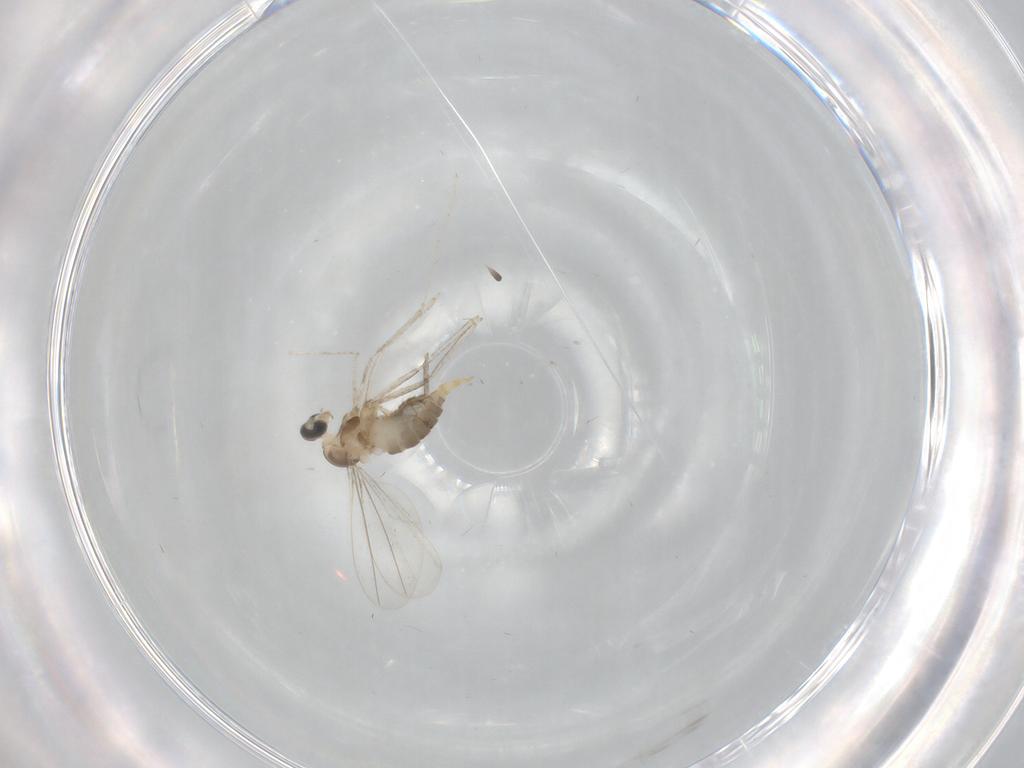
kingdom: Animalia
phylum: Arthropoda
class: Insecta
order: Diptera
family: Cecidomyiidae
